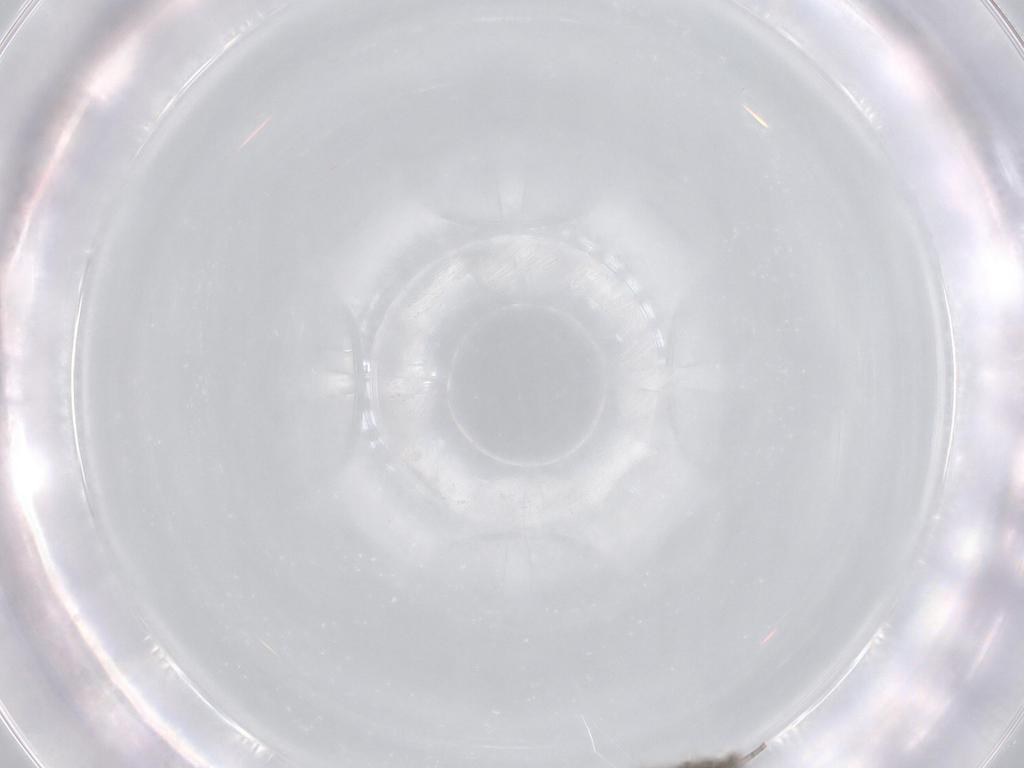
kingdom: Animalia
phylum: Arthropoda
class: Insecta
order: Diptera
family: Cecidomyiidae
